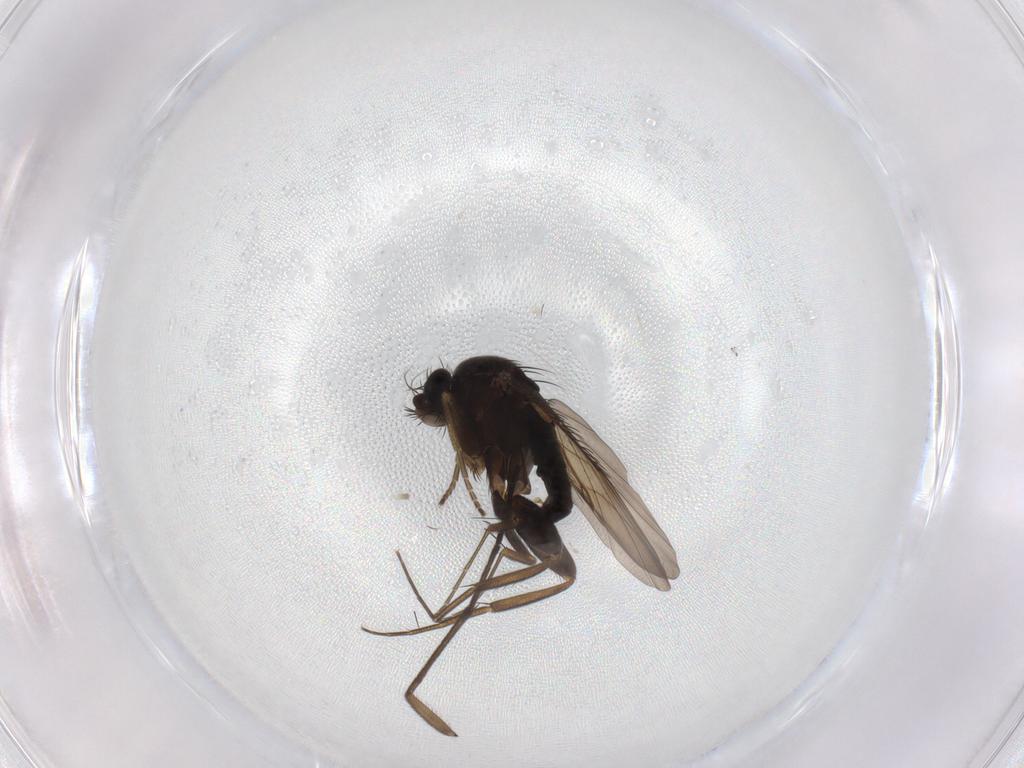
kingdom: Animalia
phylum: Arthropoda
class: Insecta
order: Diptera
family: Phoridae
